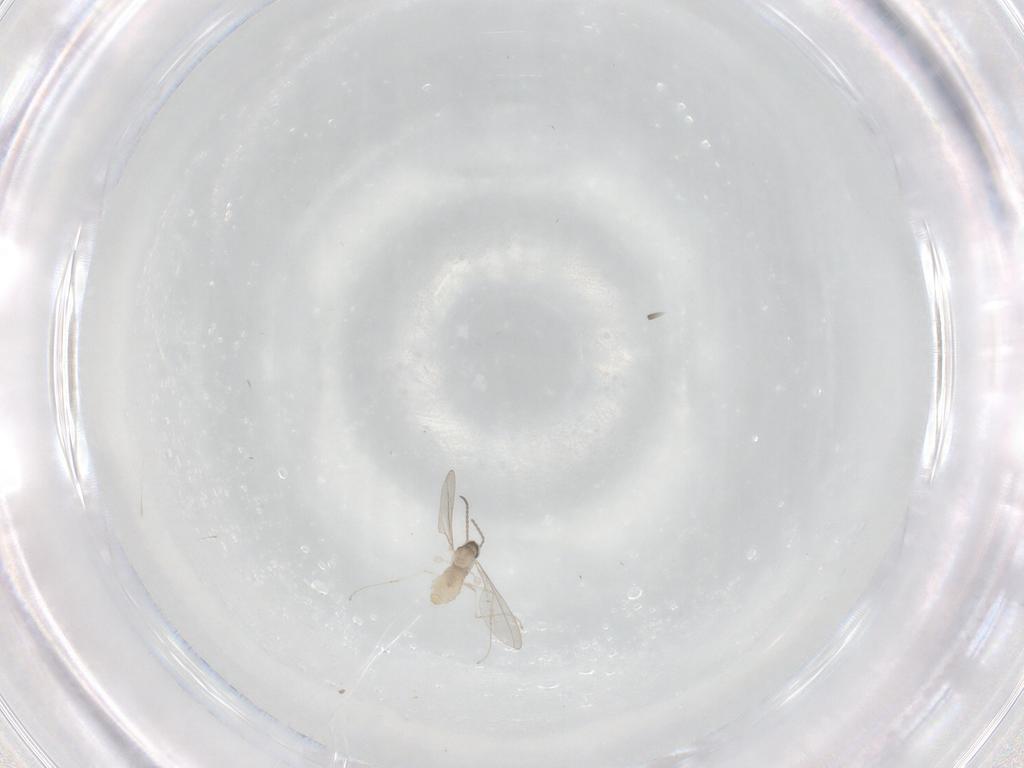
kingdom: Animalia
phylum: Arthropoda
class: Insecta
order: Diptera
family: Cecidomyiidae
